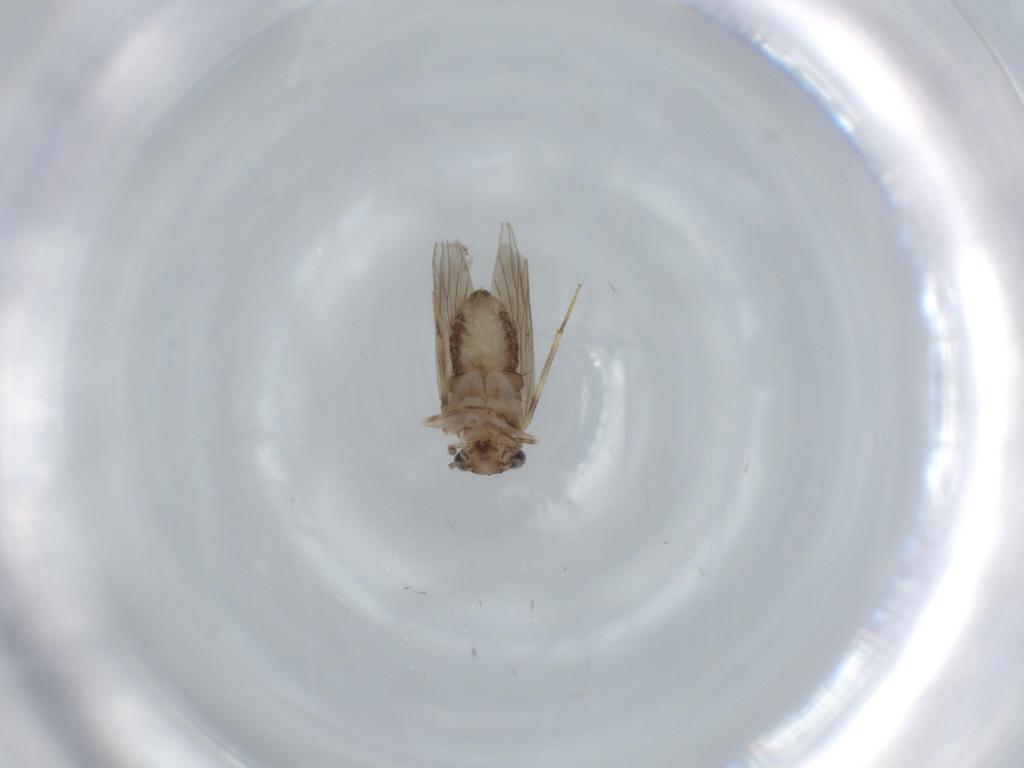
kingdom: Animalia
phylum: Arthropoda
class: Insecta
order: Psocodea
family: Lepidopsocidae
